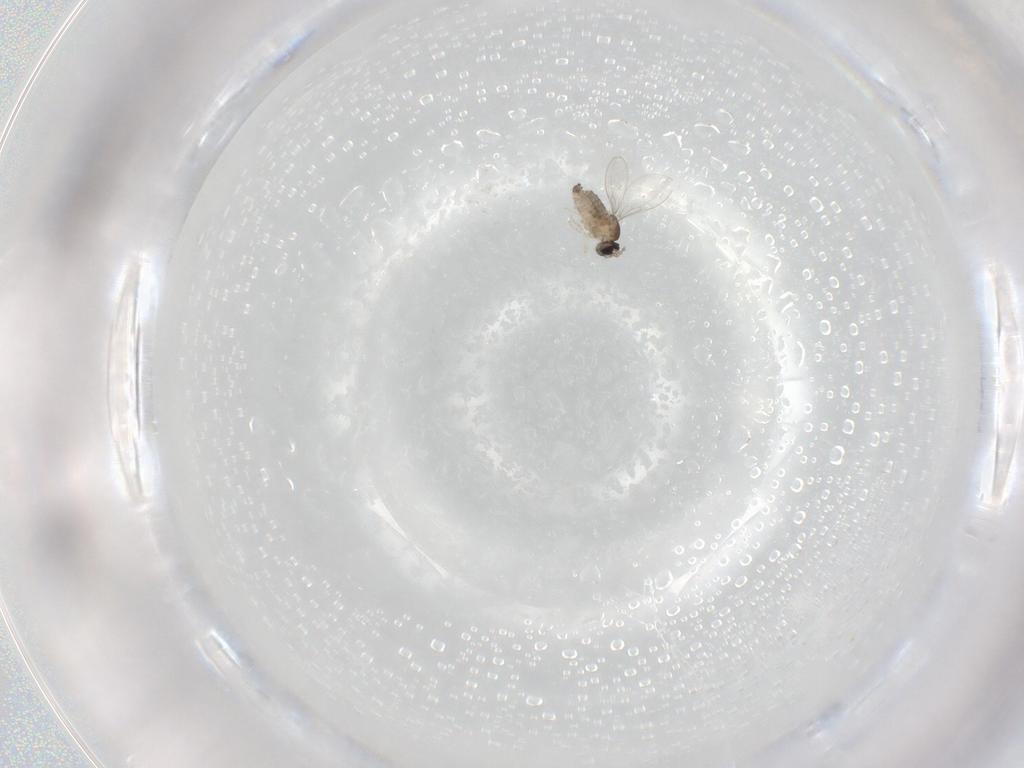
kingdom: Animalia
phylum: Arthropoda
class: Insecta
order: Diptera
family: Cecidomyiidae
